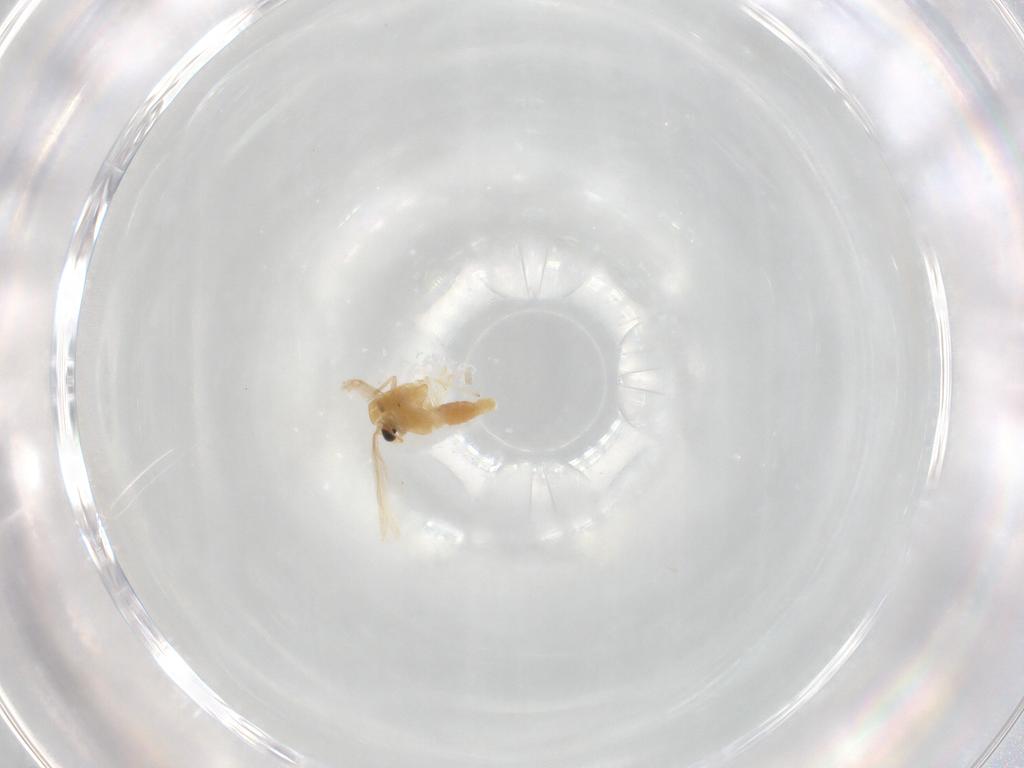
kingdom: Animalia
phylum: Arthropoda
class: Insecta
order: Diptera
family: Glossinidae
